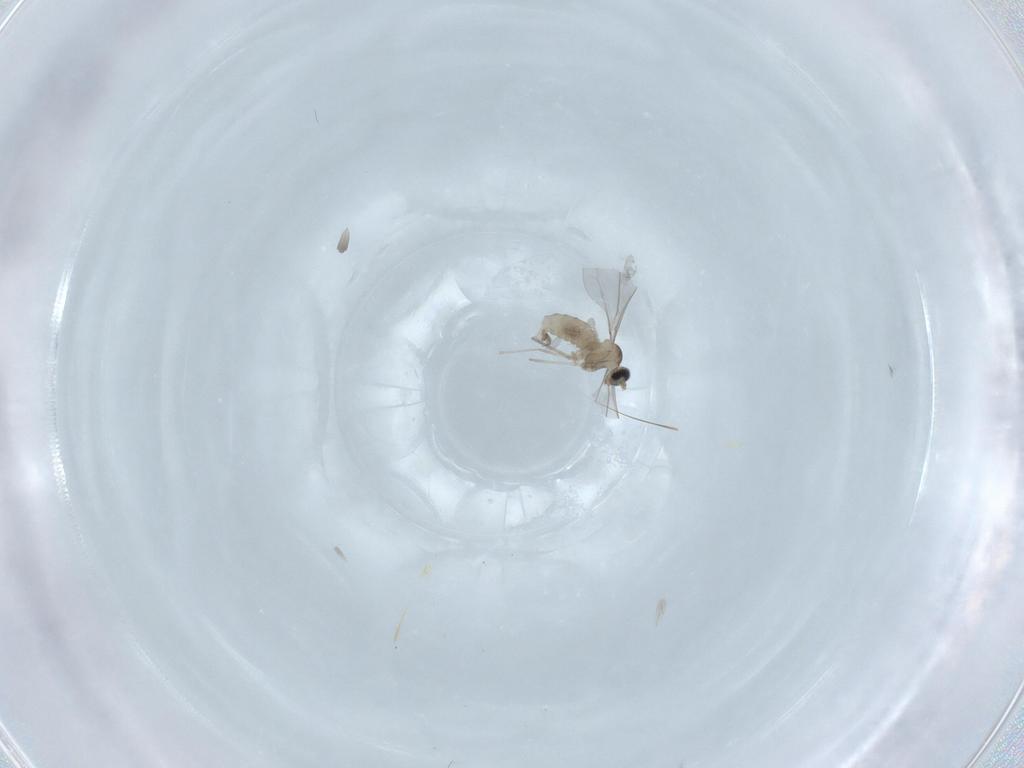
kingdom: Animalia
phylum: Arthropoda
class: Insecta
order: Diptera
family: Cecidomyiidae
